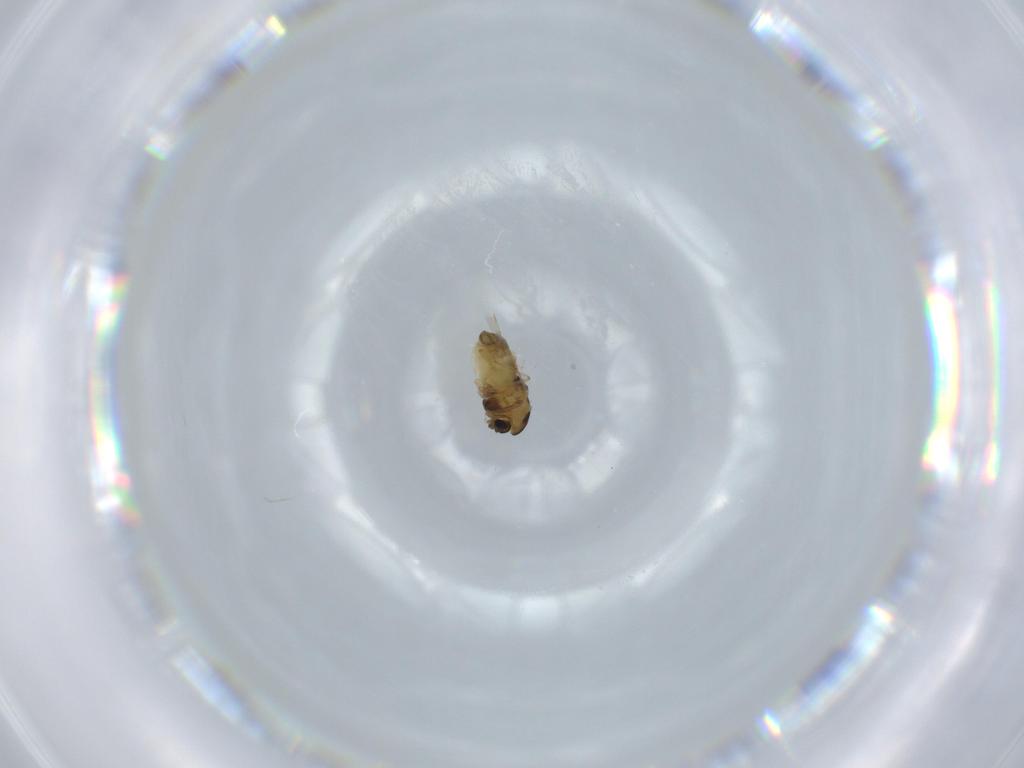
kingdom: Animalia
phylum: Arthropoda
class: Insecta
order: Diptera
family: Chironomidae
